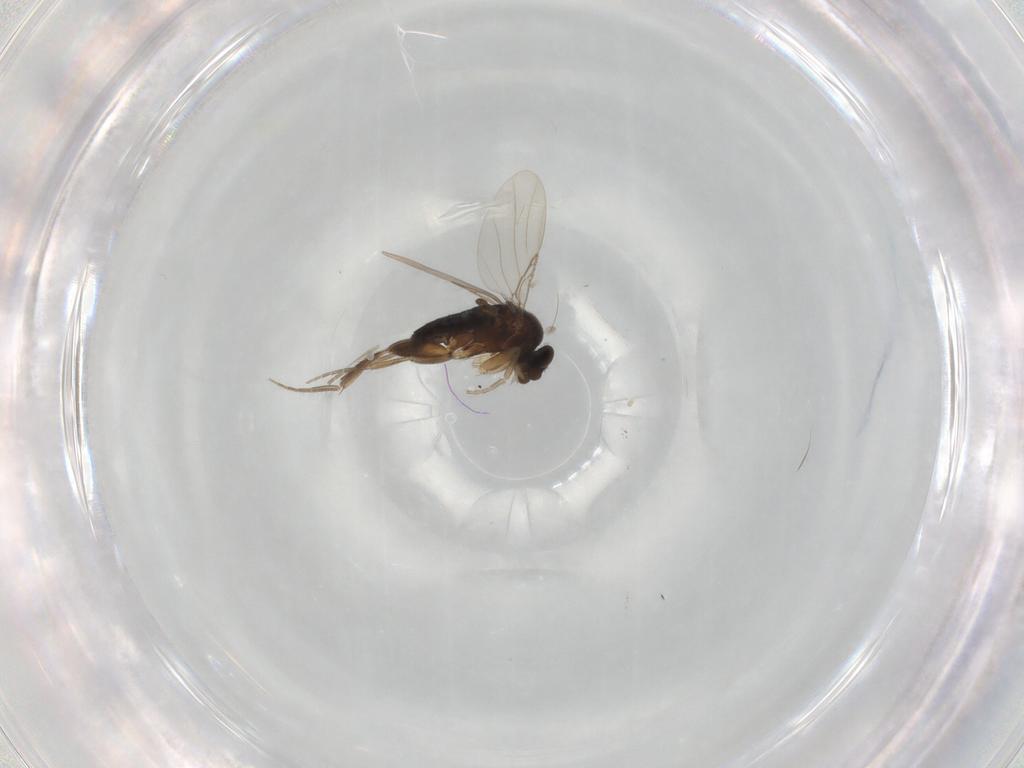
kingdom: Animalia
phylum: Arthropoda
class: Insecta
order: Diptera
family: Phoridae
